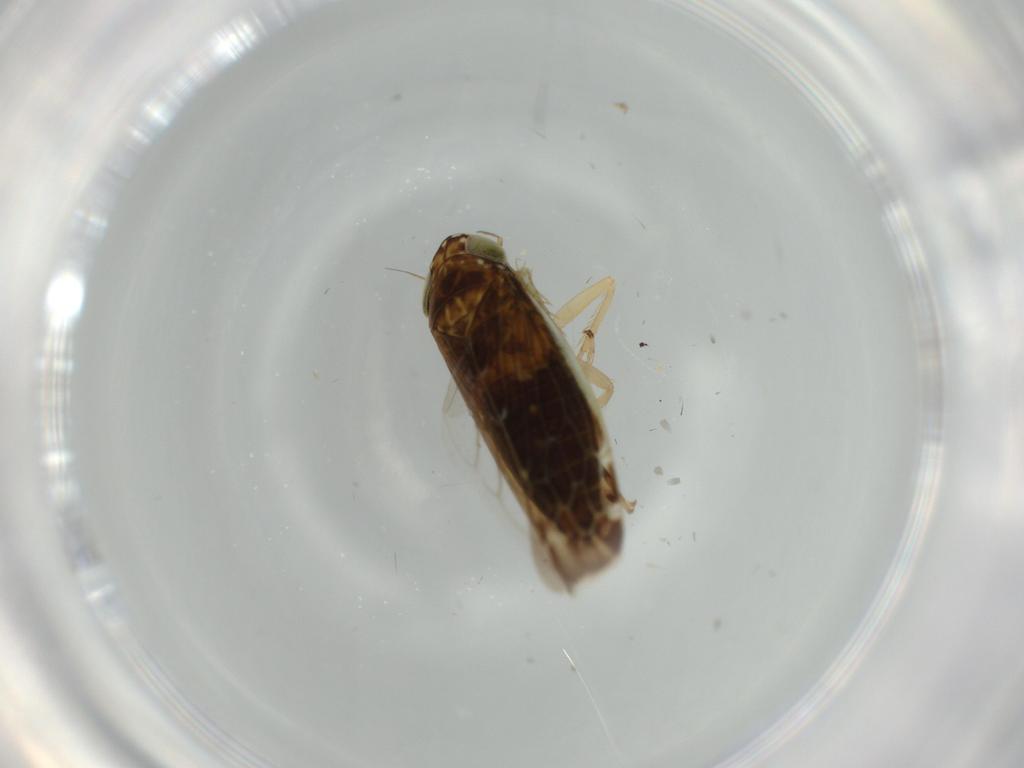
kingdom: Animalia
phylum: Arthropoda
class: Insecta
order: Hemiptera
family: Cicadellidae
